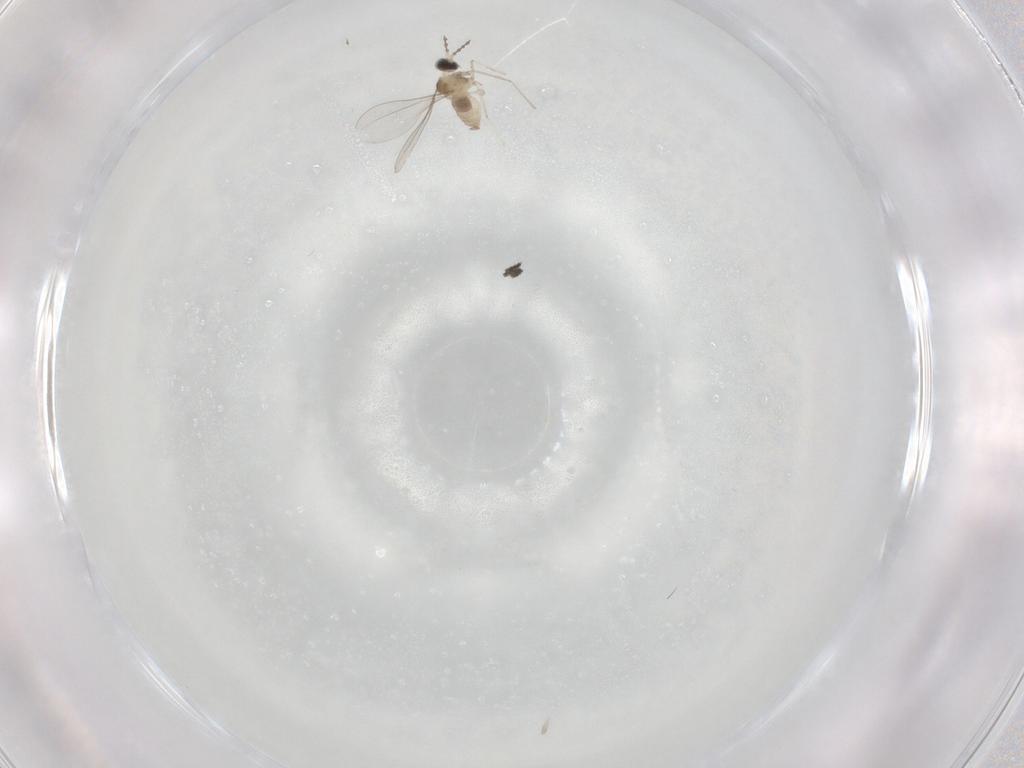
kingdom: Animalia
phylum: Arthropoda
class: Insecta
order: Diptera
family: Cecidomyiidae
